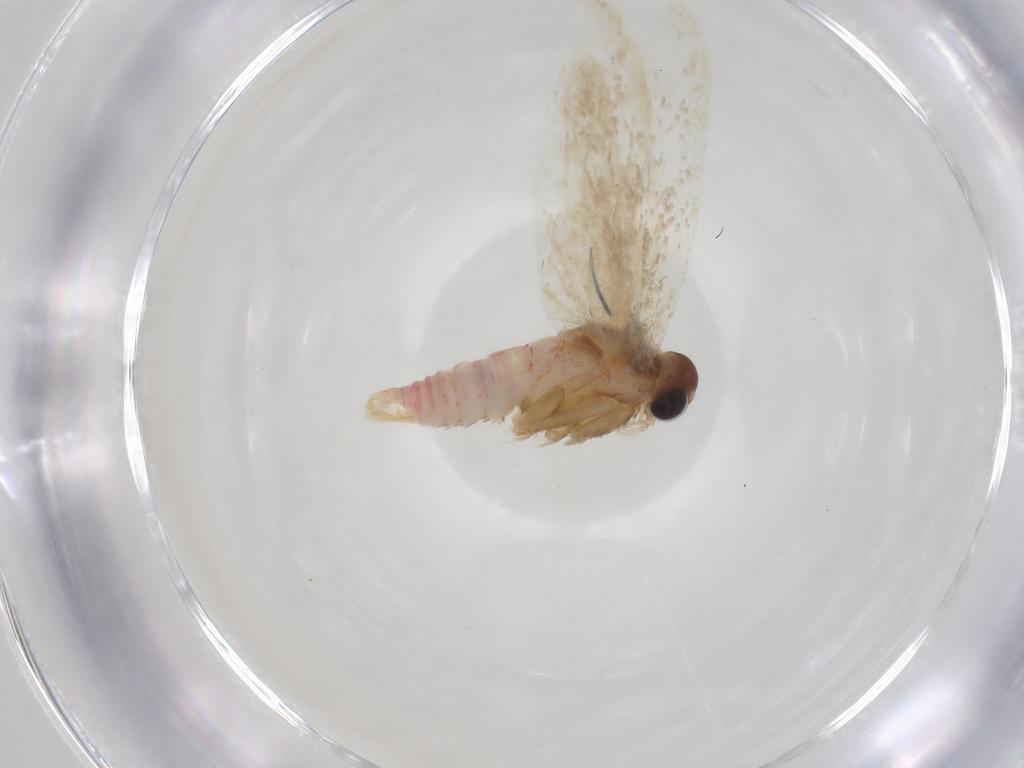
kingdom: Animalia
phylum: Arthropoda
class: Insecta
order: Lepidoptera
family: Autostichidae
